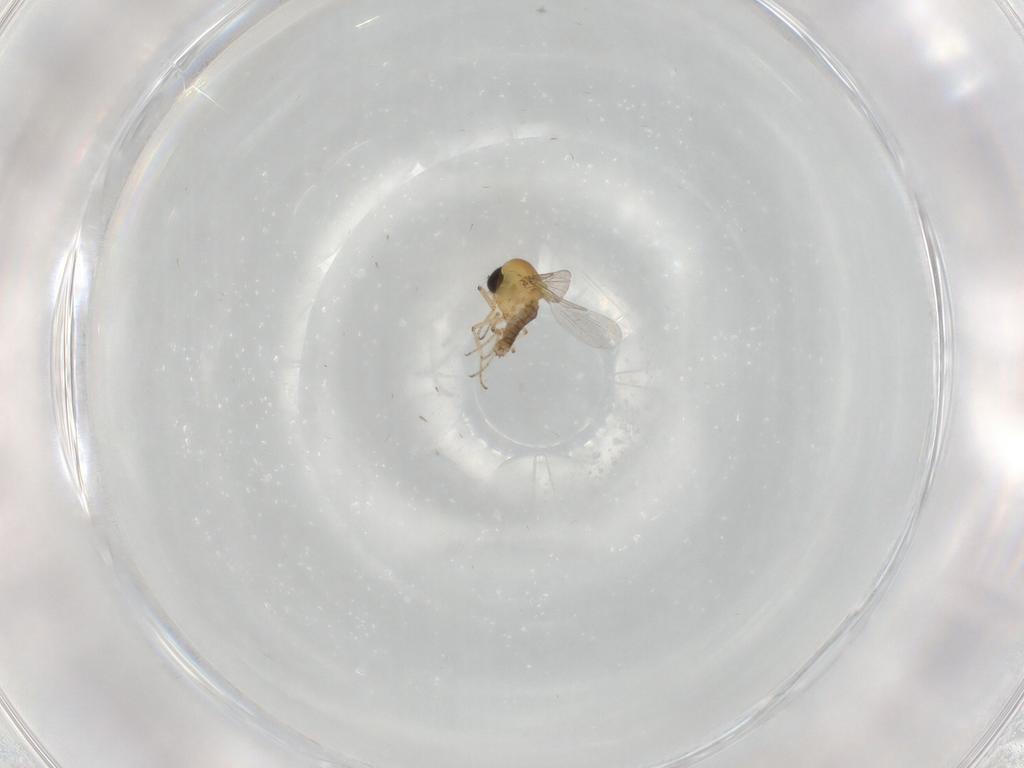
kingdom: Animalia
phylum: Arthropoda
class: Insecta
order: Diptera
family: Ceratopogonidae
